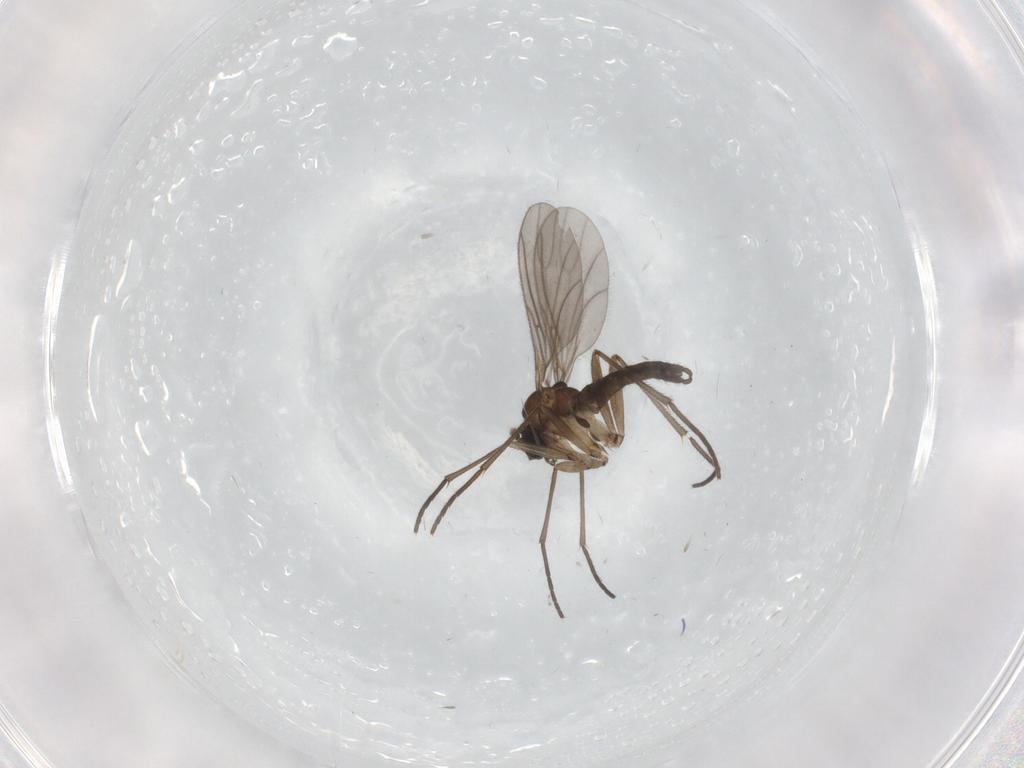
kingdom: Animalia
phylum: Arthropoda
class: Insecta
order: Diptera
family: Sciaridae
